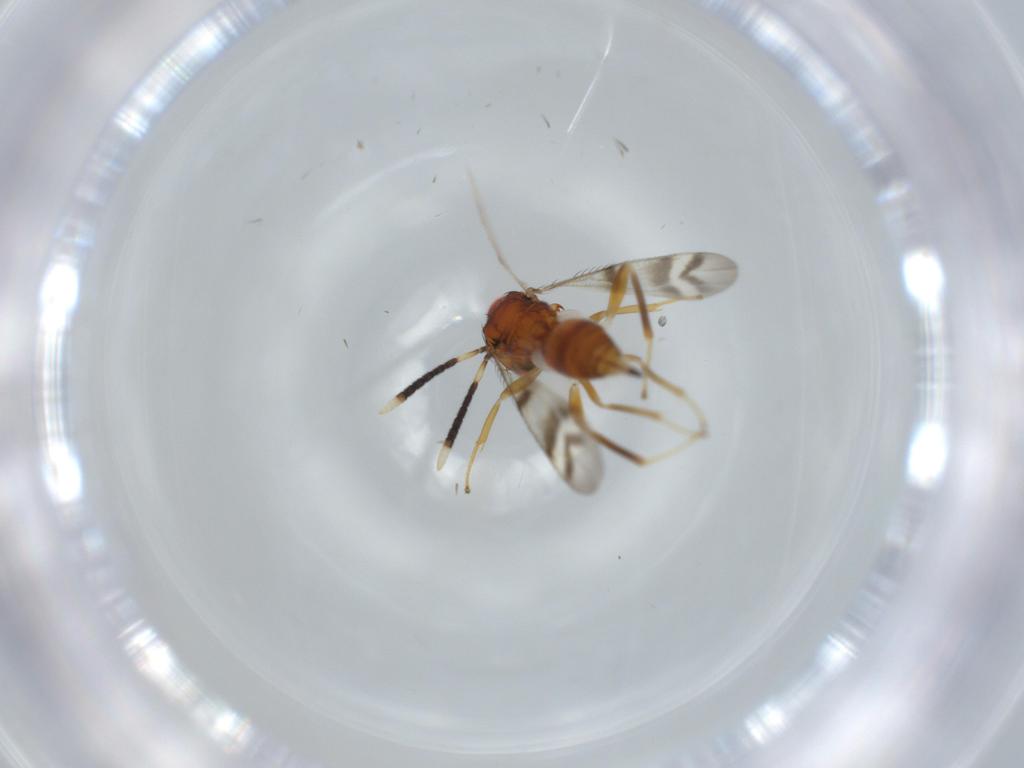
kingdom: Animalia
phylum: Arthropoda
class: Insecta
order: Hymenoptera
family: Diparidae
